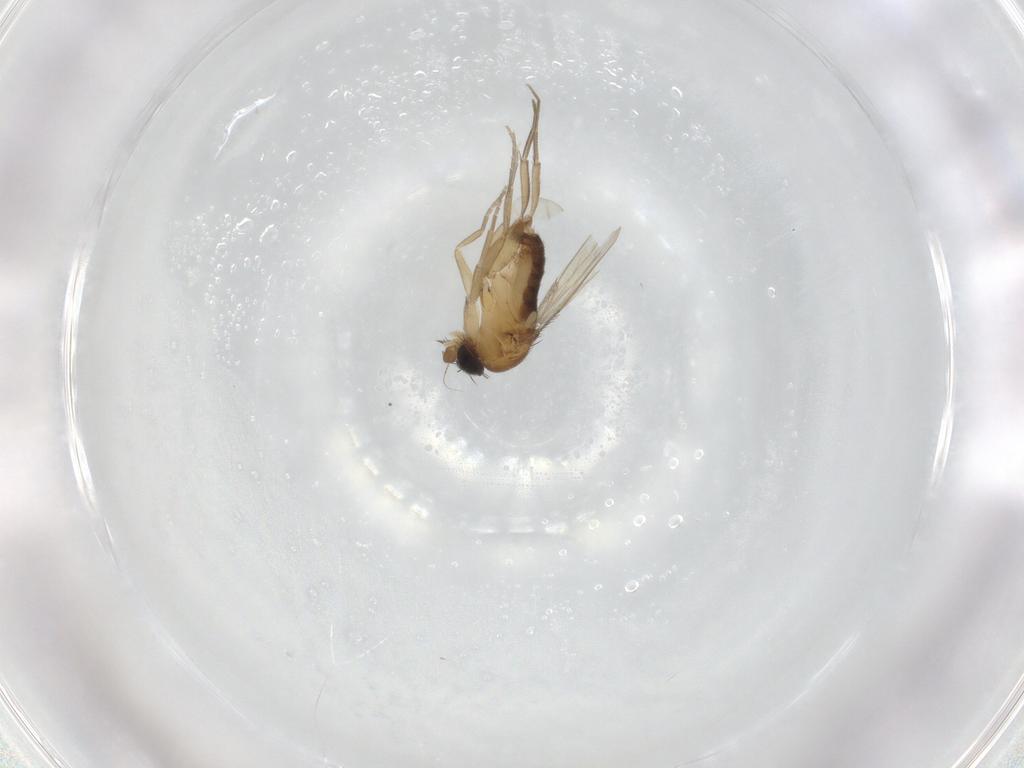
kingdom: Animalia
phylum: Arthropoda
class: Insecta
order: Diptera
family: Phoridae
